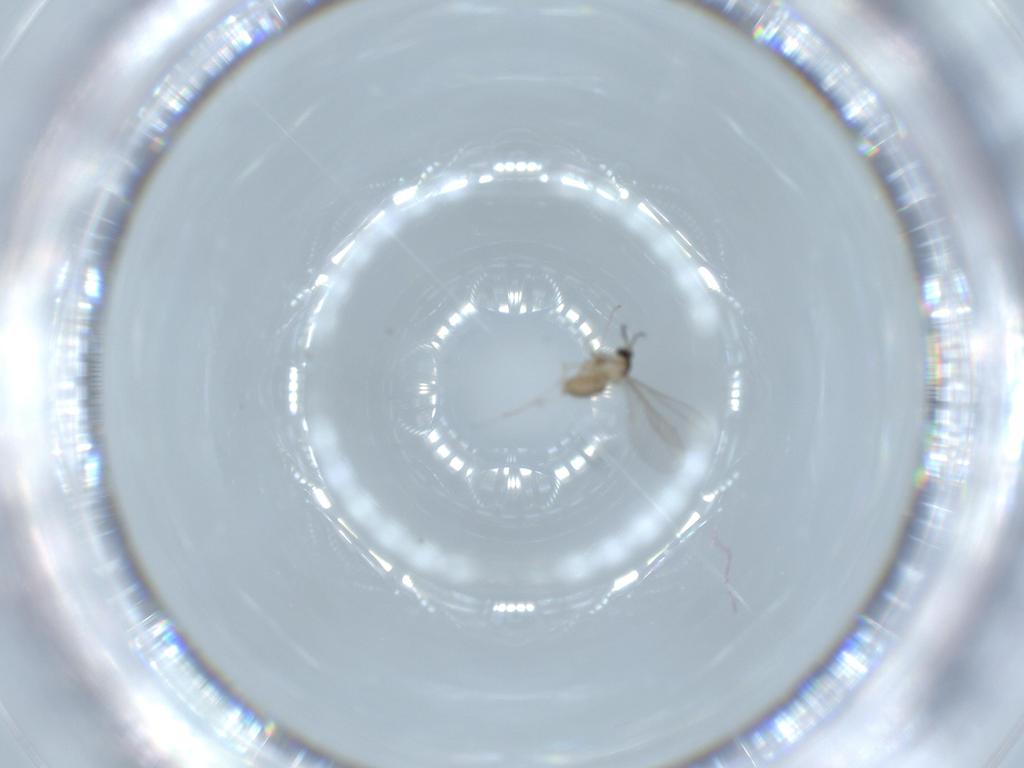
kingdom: Animalia
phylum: Arthropoda
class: Insecta
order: Diptera
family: Cecidomyiidae
